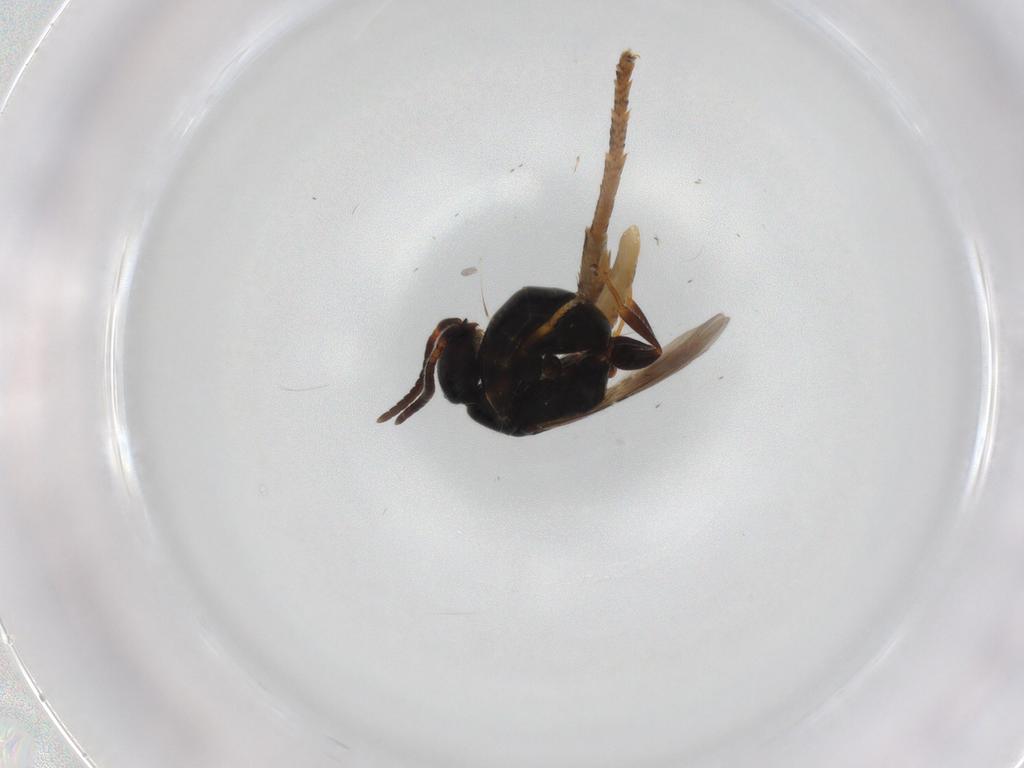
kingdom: Animalia
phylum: Arthropoda
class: Insecta
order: Hymenoptera
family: Bethylidae
